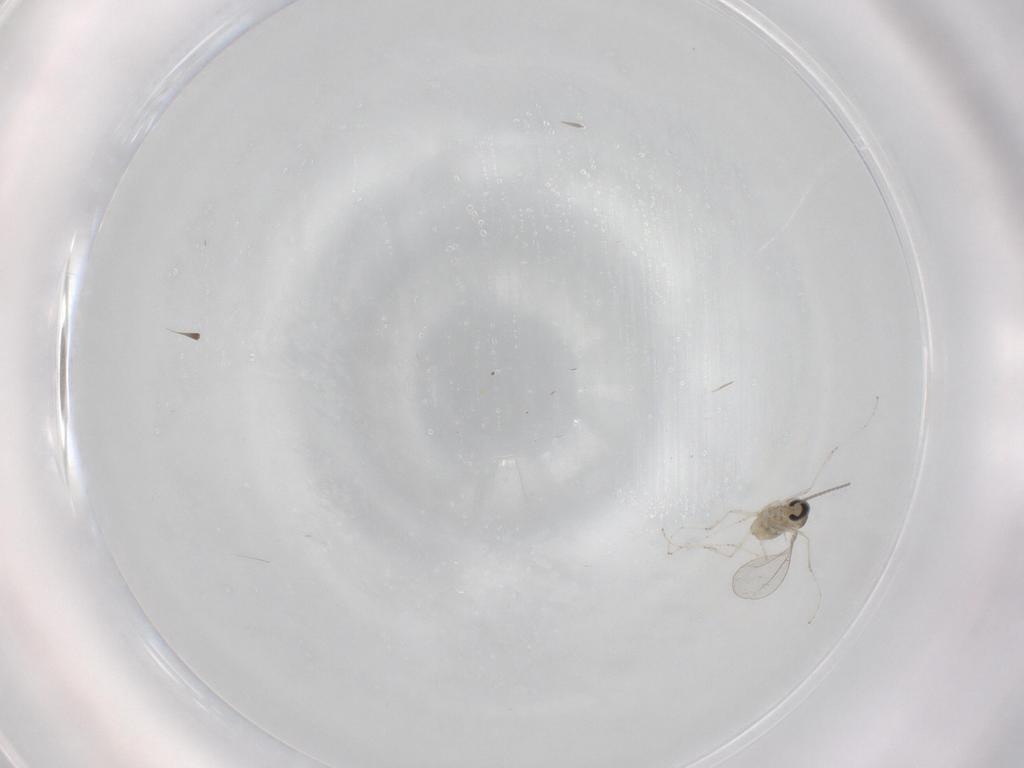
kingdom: Animalia
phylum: Arthropoda
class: Insecta
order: Diptera
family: Cecidomyiidae
